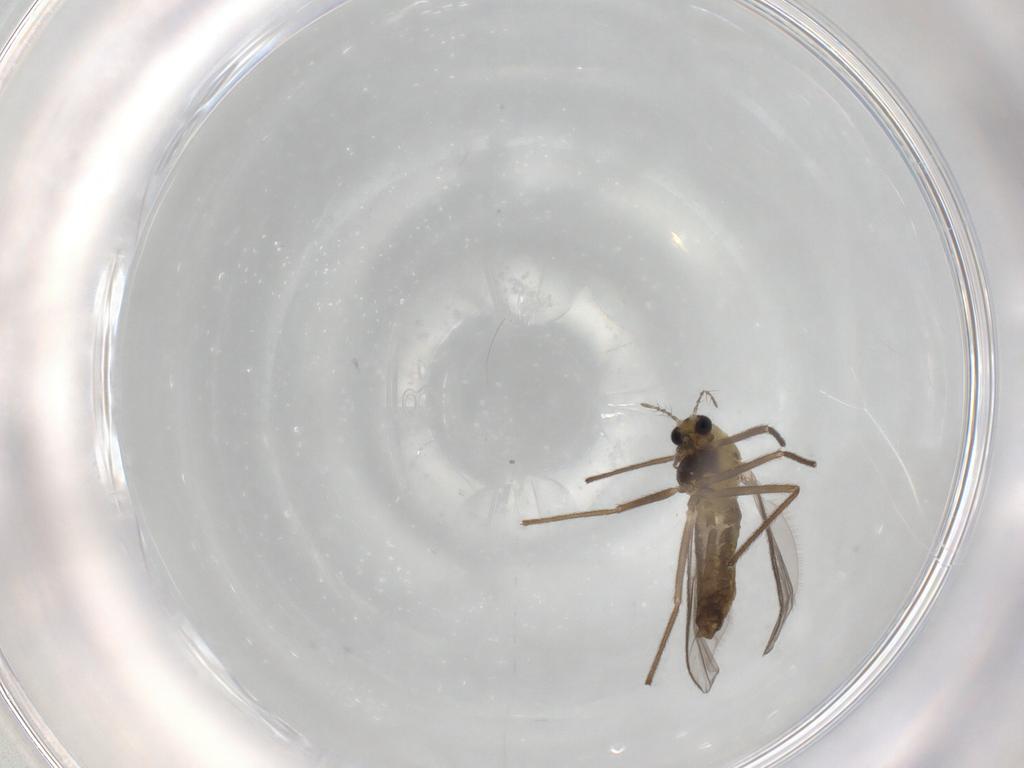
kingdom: Animalia
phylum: Arthropoda
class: Insecta
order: Diptera
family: Chironomidae
